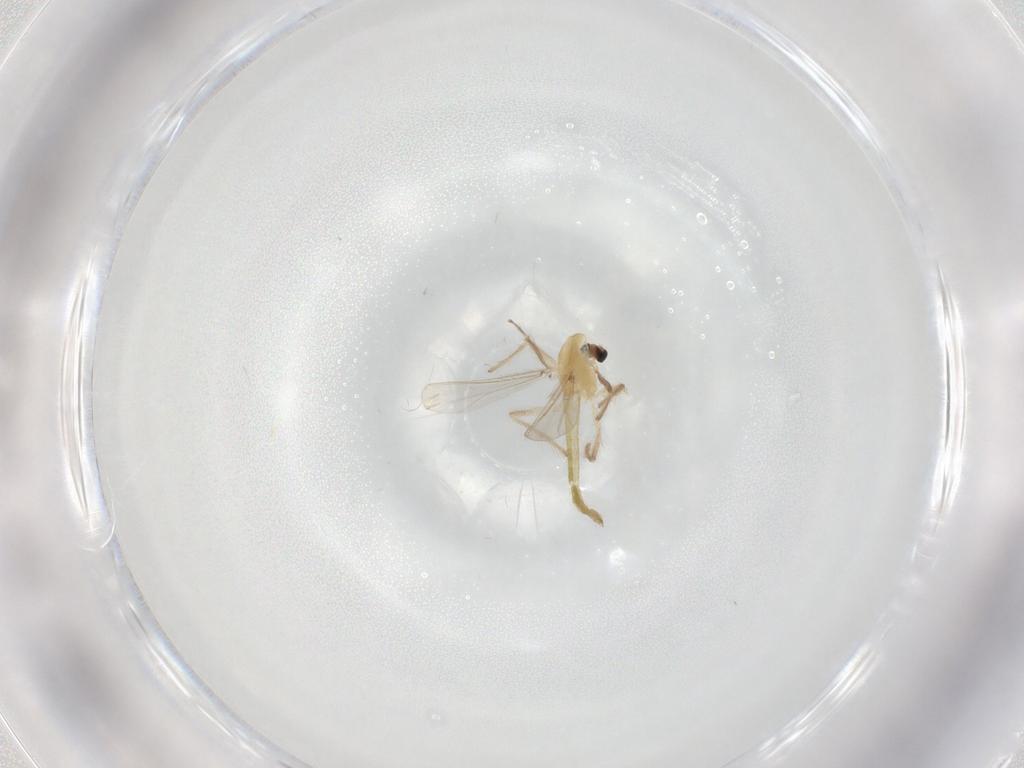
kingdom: Animalia
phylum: Arthropoda
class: Insecta
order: Diptera
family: Chironomidae
